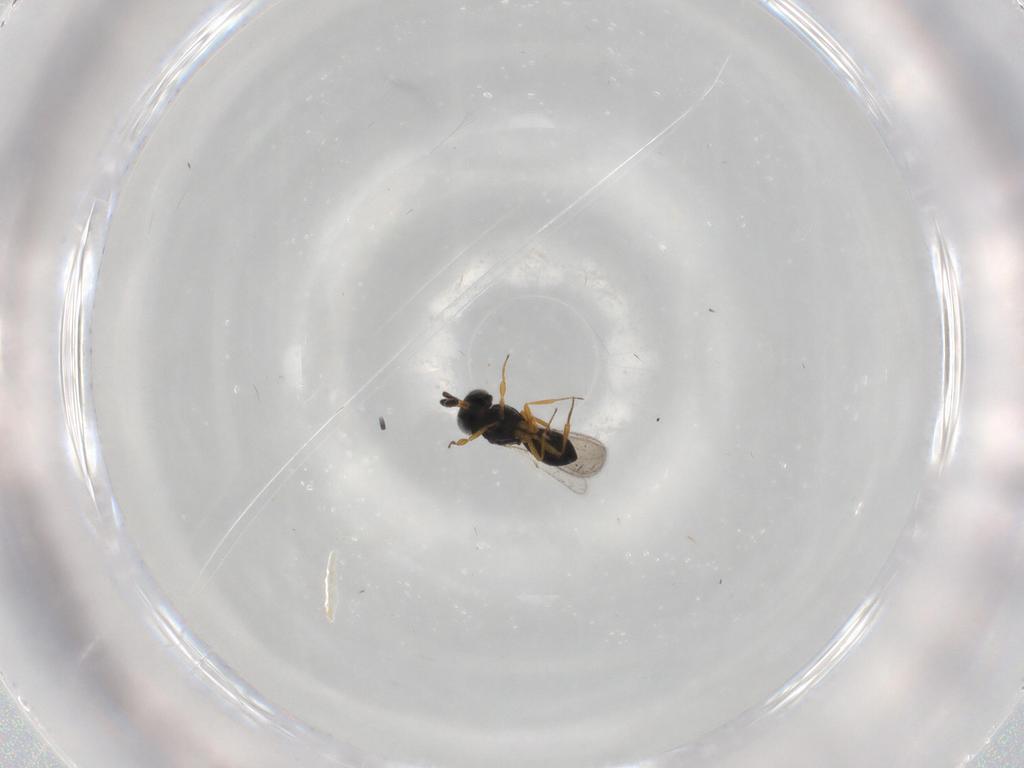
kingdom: Animalia
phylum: Arthropoda
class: Insecta
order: Hymenoptera
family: Scelionidae
